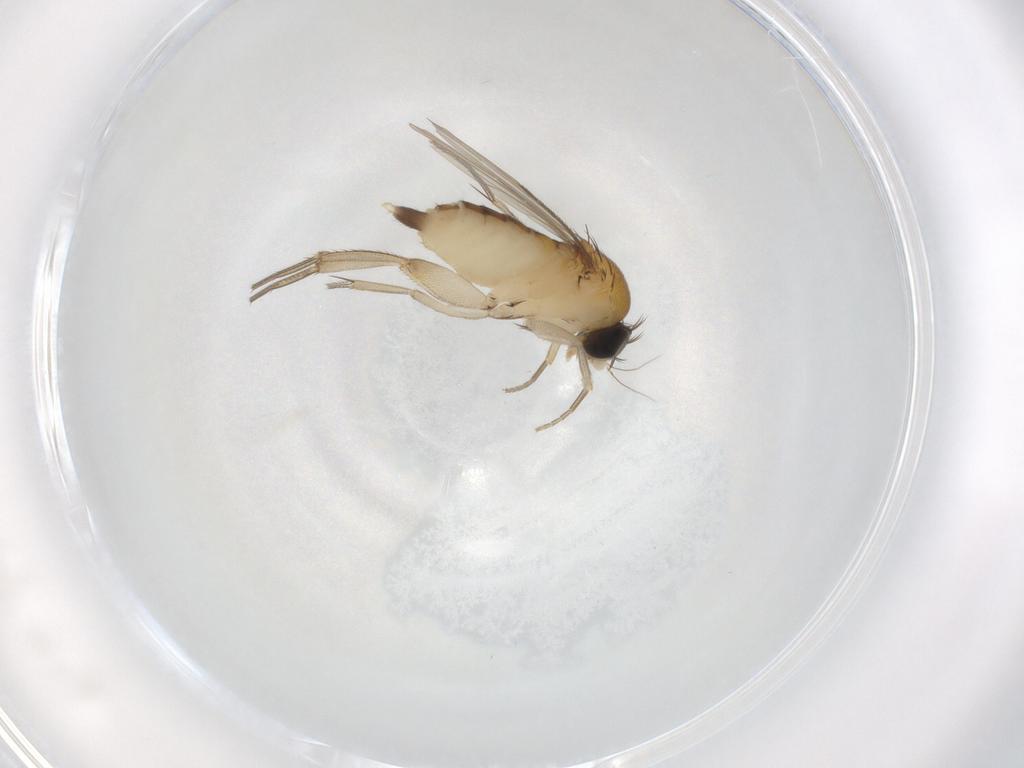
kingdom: Animalia
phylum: Arthropoda
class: Insecta
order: Diptera
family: Phoridae
